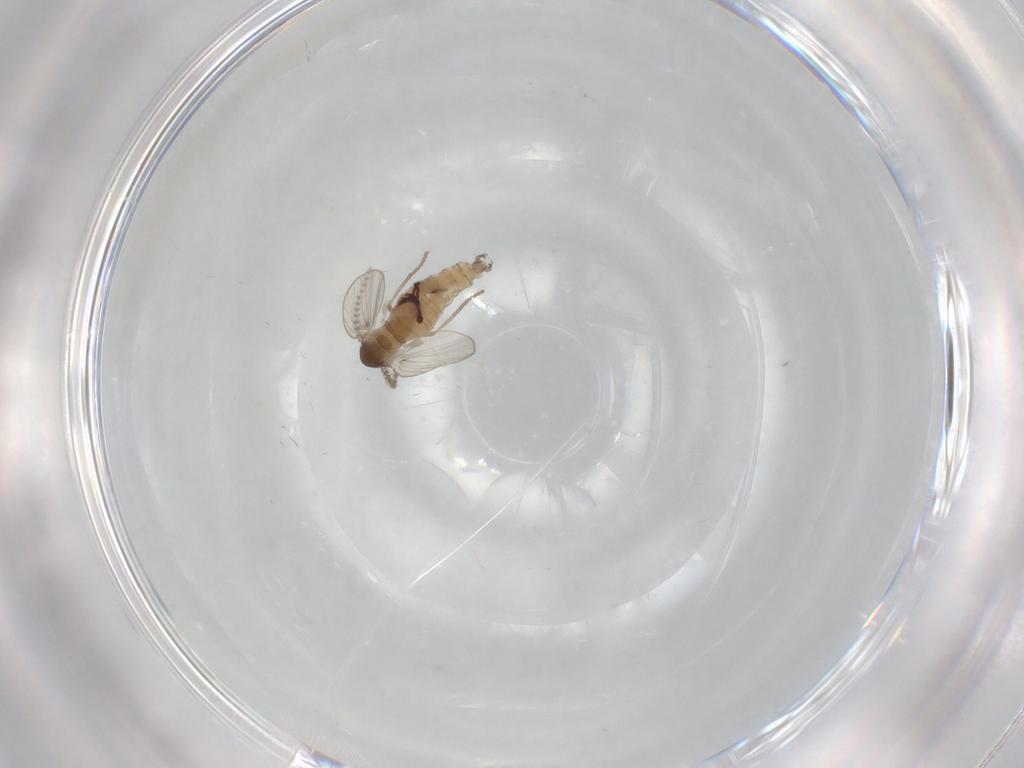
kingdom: Animalia
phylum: Arthropoda
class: Insecta
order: Diptera
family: Psychodidae
